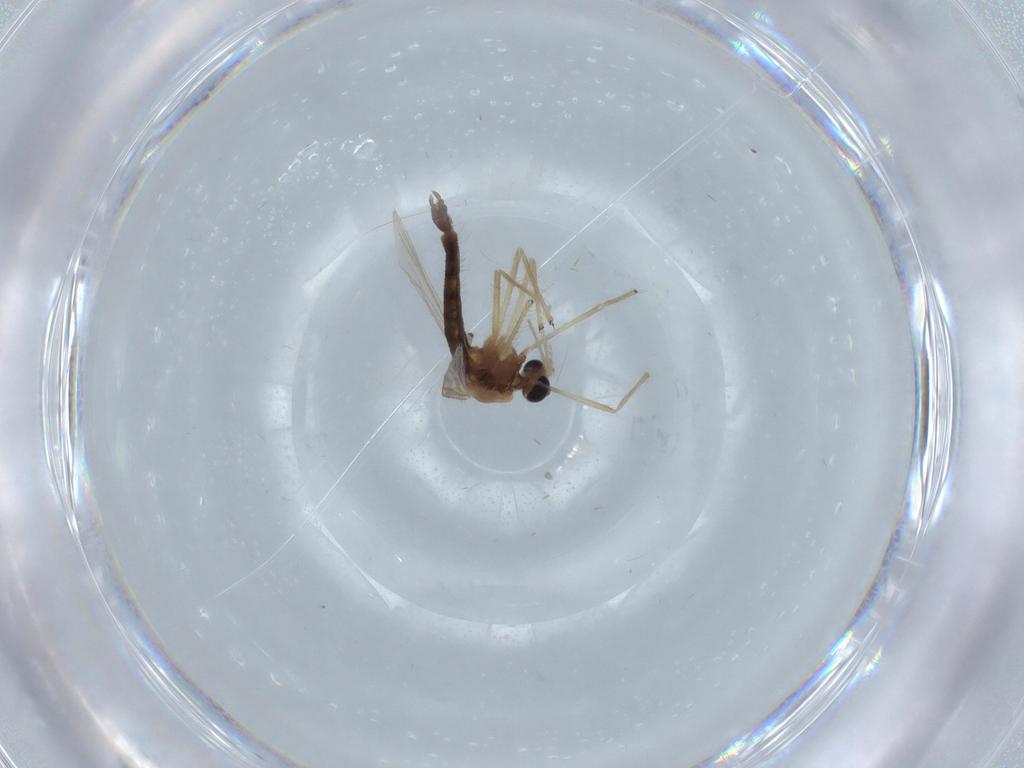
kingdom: Animalia
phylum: Arthropoda
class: Insecta
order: Diptera
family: Chironomidae
